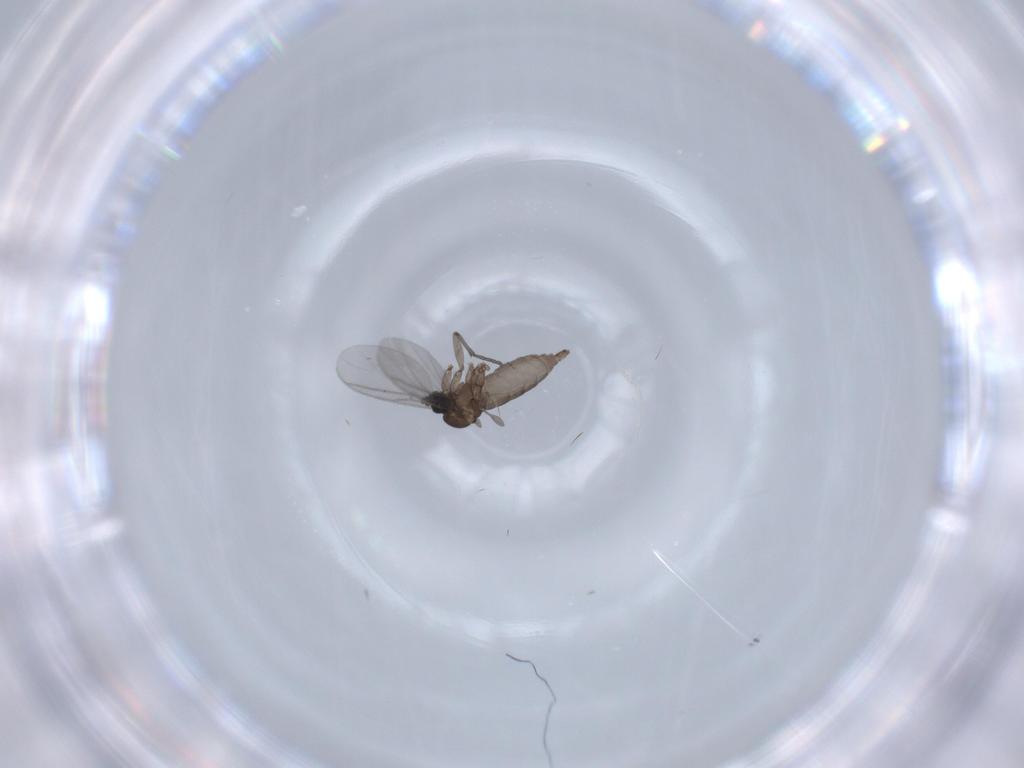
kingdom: Animalia
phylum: Arthropoda
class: Insecta
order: Diptera
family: Sciaridae
